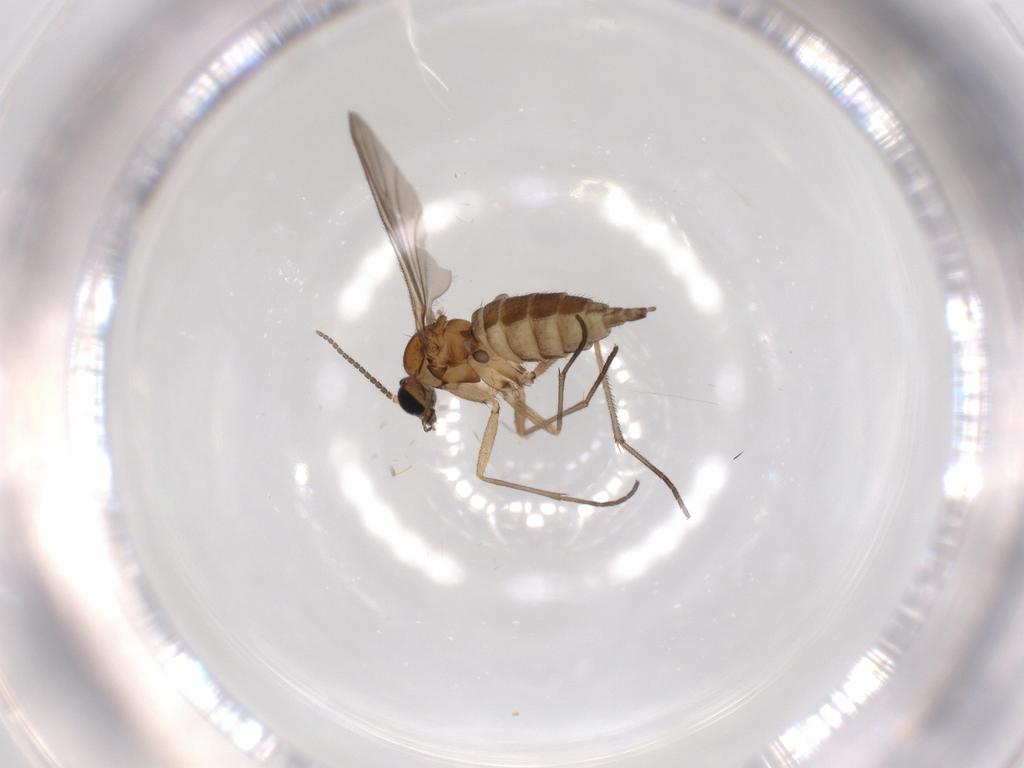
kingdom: Animalia
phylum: Arthropoda
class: Insecta
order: Diptera
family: Sciaridae
